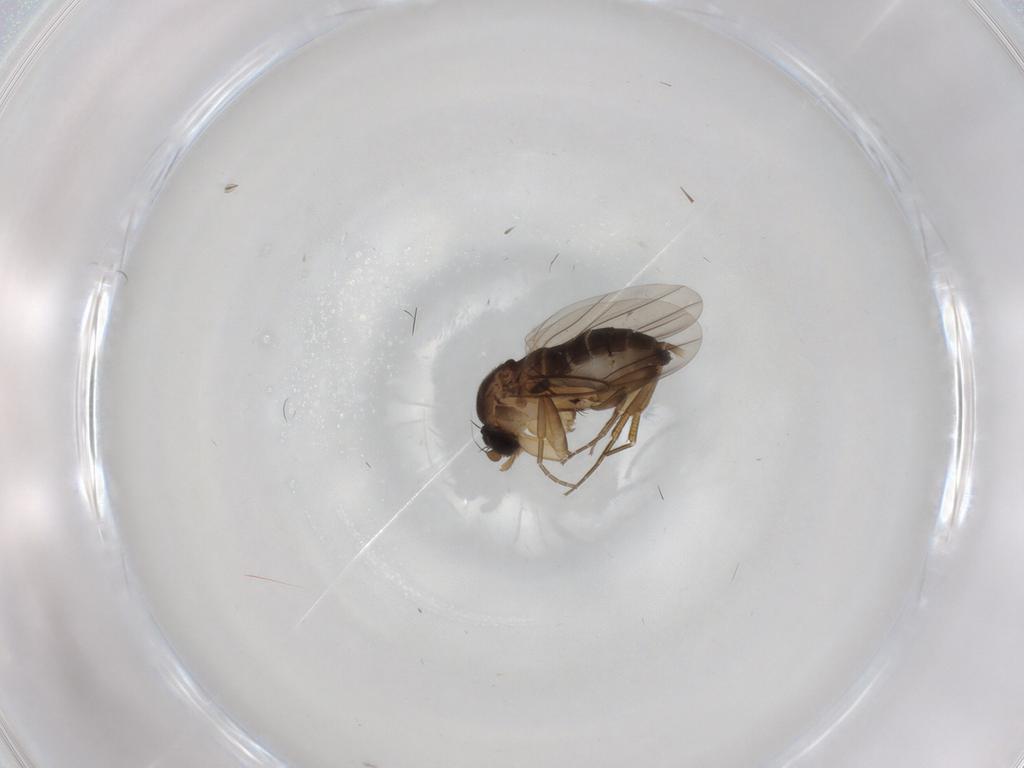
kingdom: Animalia
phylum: Arthropoda
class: Insecta
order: Diptera
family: Phoridae
